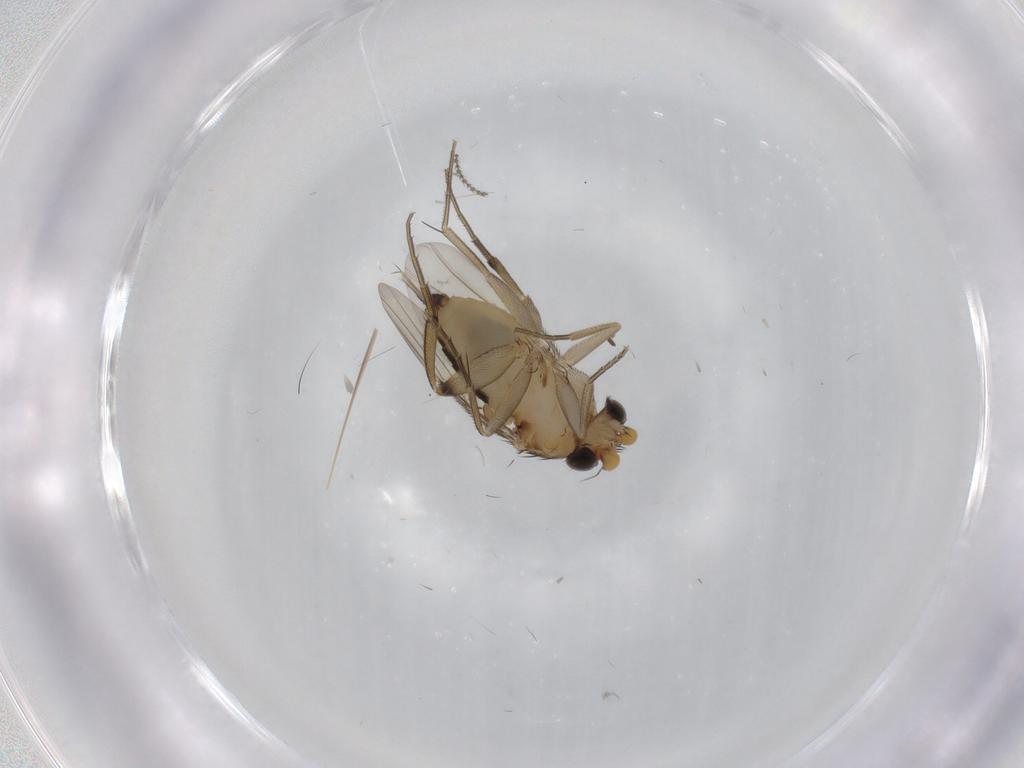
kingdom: Animalia
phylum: Arthropoda
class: Insecta
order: Diptera
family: Cecidomyiidae
